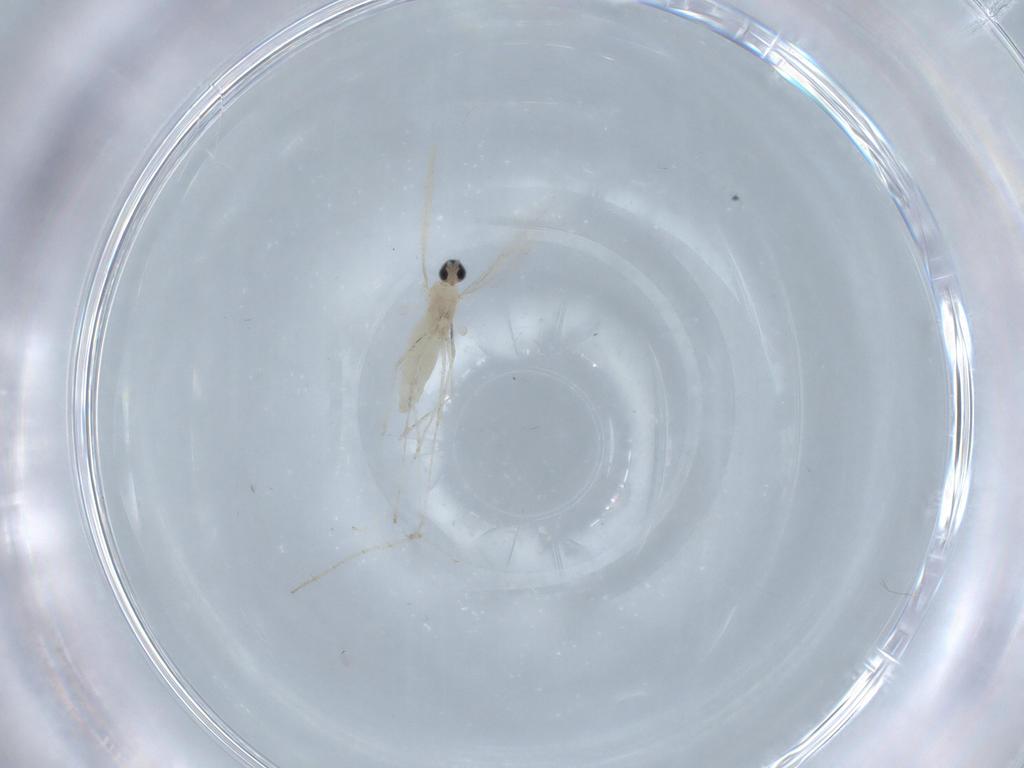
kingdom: Animalia
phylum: Arthropoda
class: Insecta
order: Diptera
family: Chironomidae
